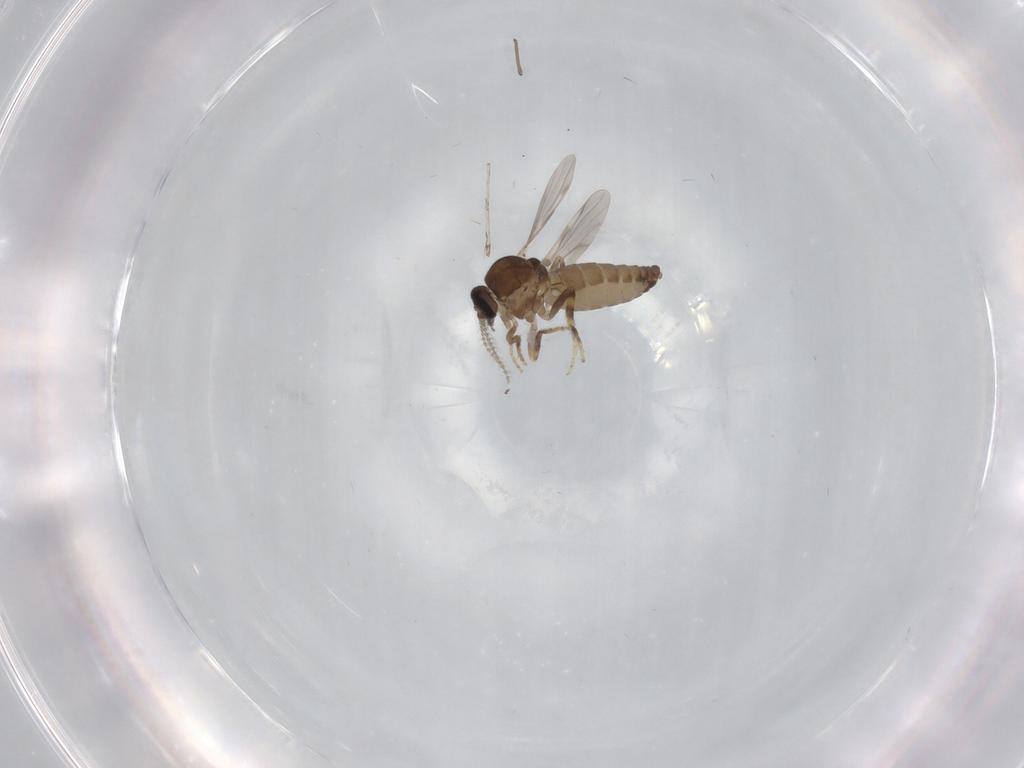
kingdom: Animalia
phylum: Arthropoda
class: Insecta
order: Diptera
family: Ceratopogonidae
